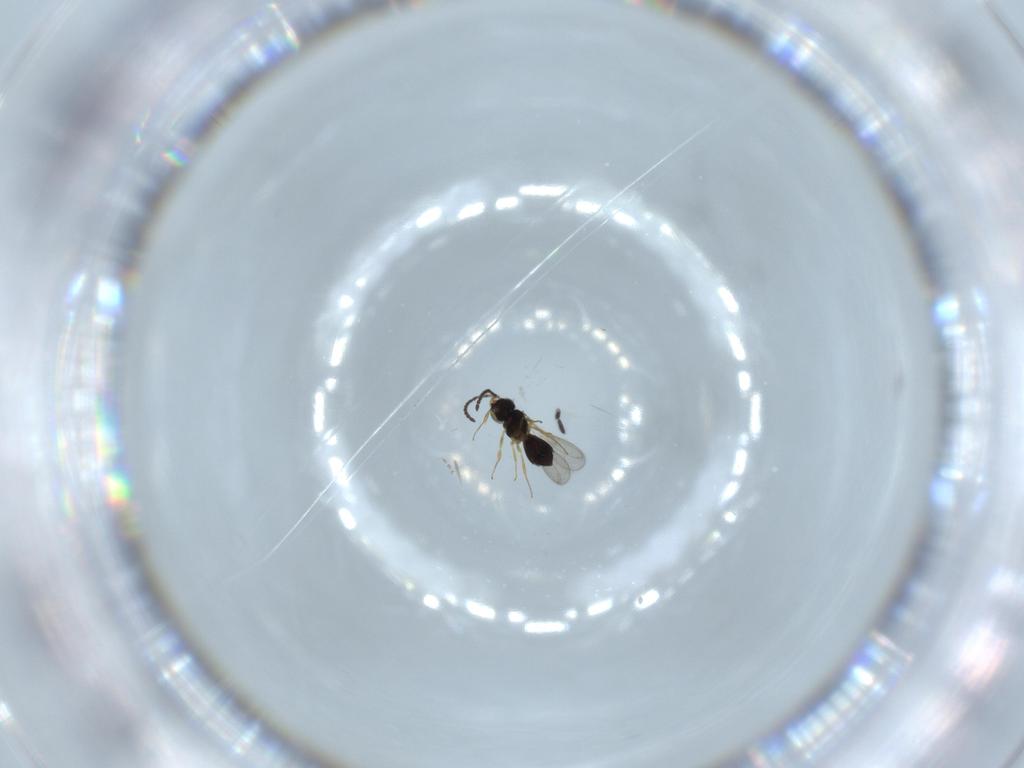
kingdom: Animalia
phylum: Arthropoda
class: Insecta
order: Hymenoptera
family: Scelionidae
